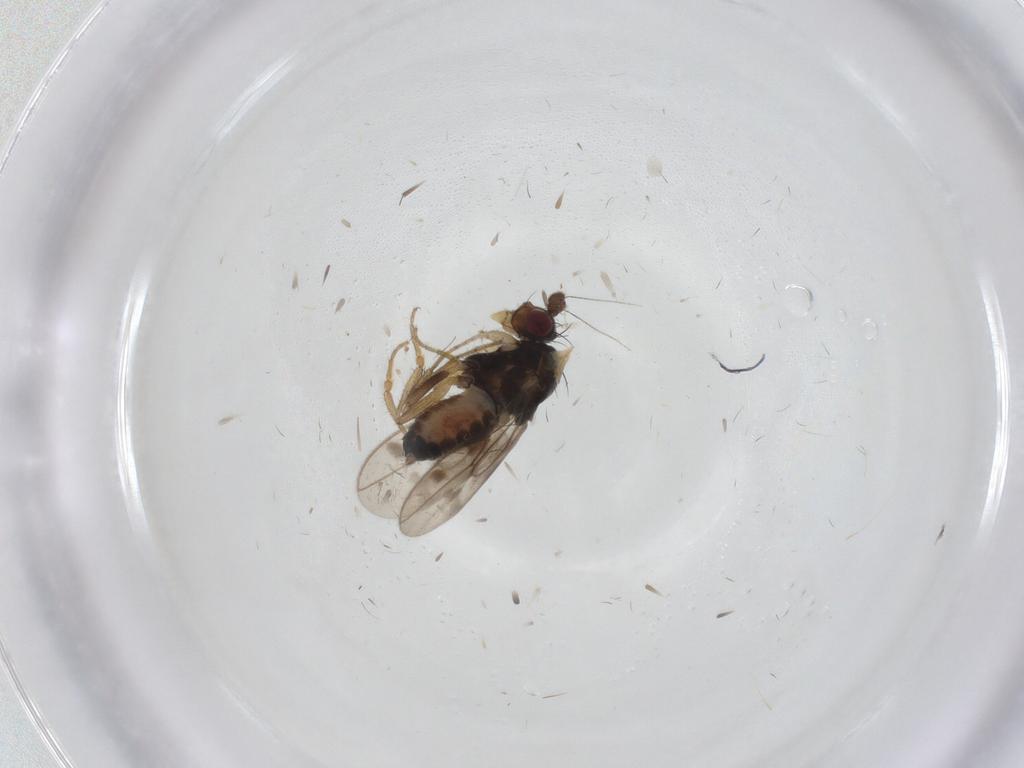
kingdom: Animalia
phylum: Arthropoda
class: Insecta
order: Diptera
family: Sphaeroceridae
